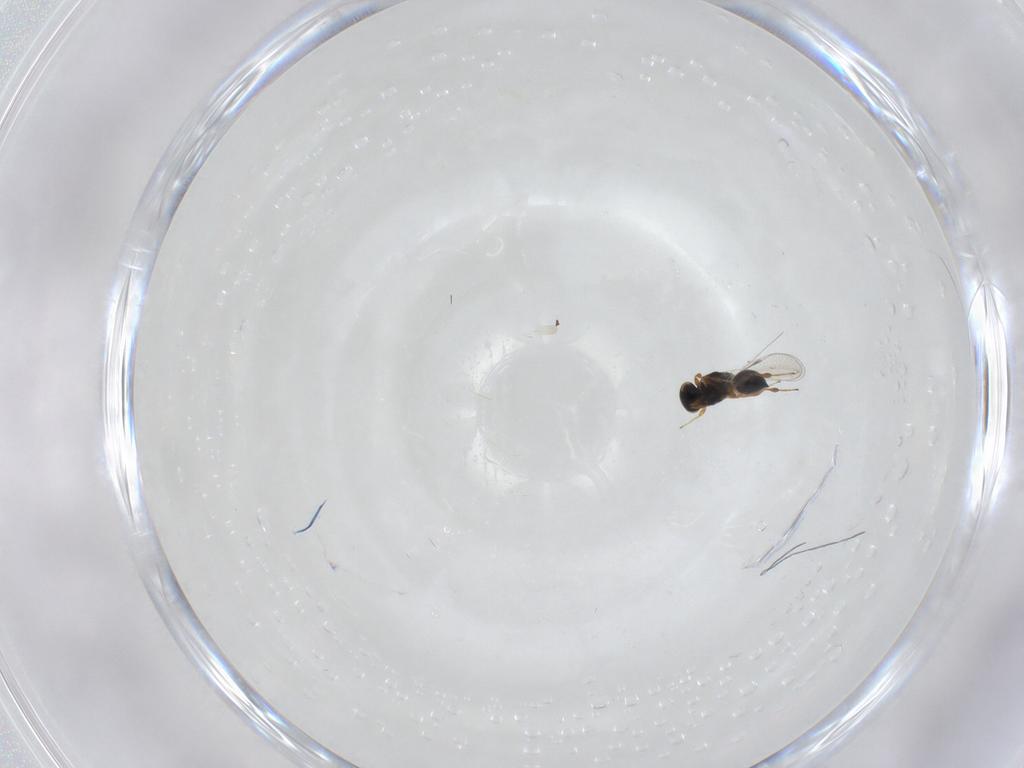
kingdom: Animalia
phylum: Arthropoda
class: Insecta
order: Hymenoptera
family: Platygastridae
